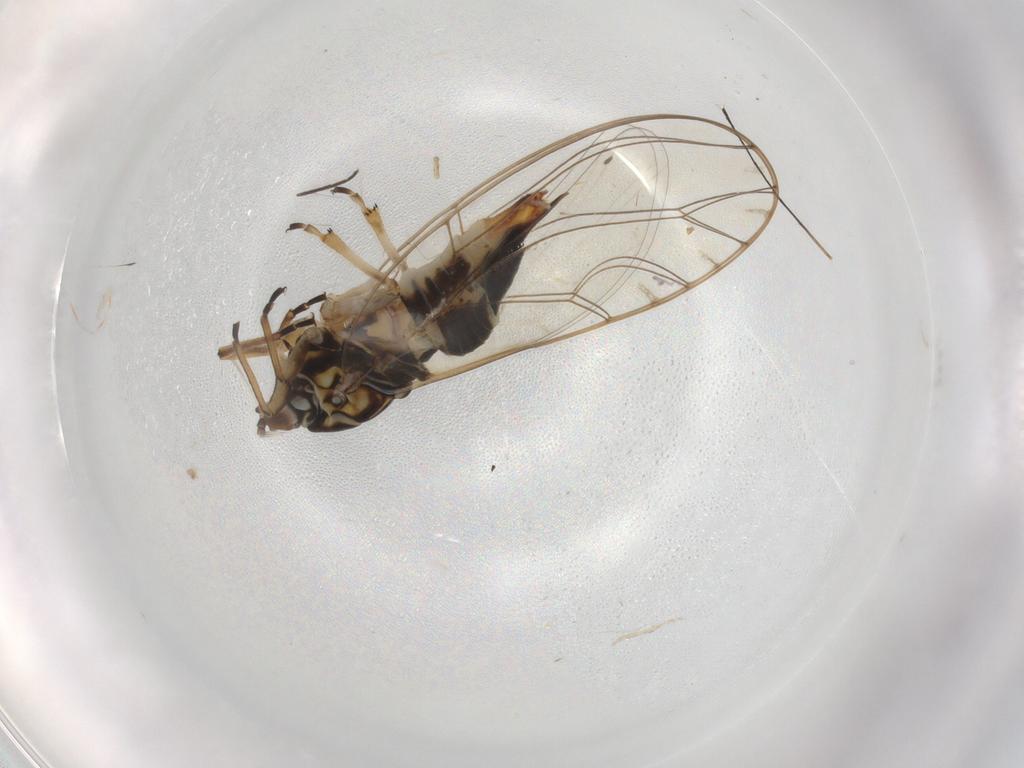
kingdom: Animalia
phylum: Arthropoda
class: Insecta
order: Hemiptera
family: Triozidae
